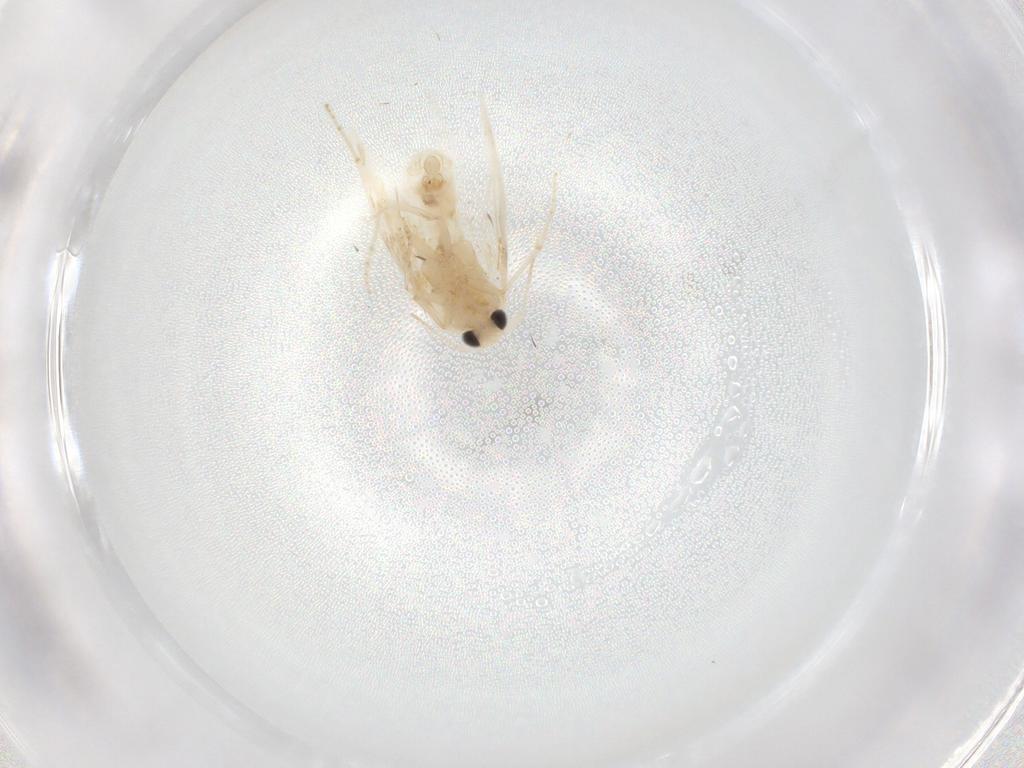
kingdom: Animalia
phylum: Arthropoda
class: Insecta
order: Lepidoptera
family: Bucculatricidae
